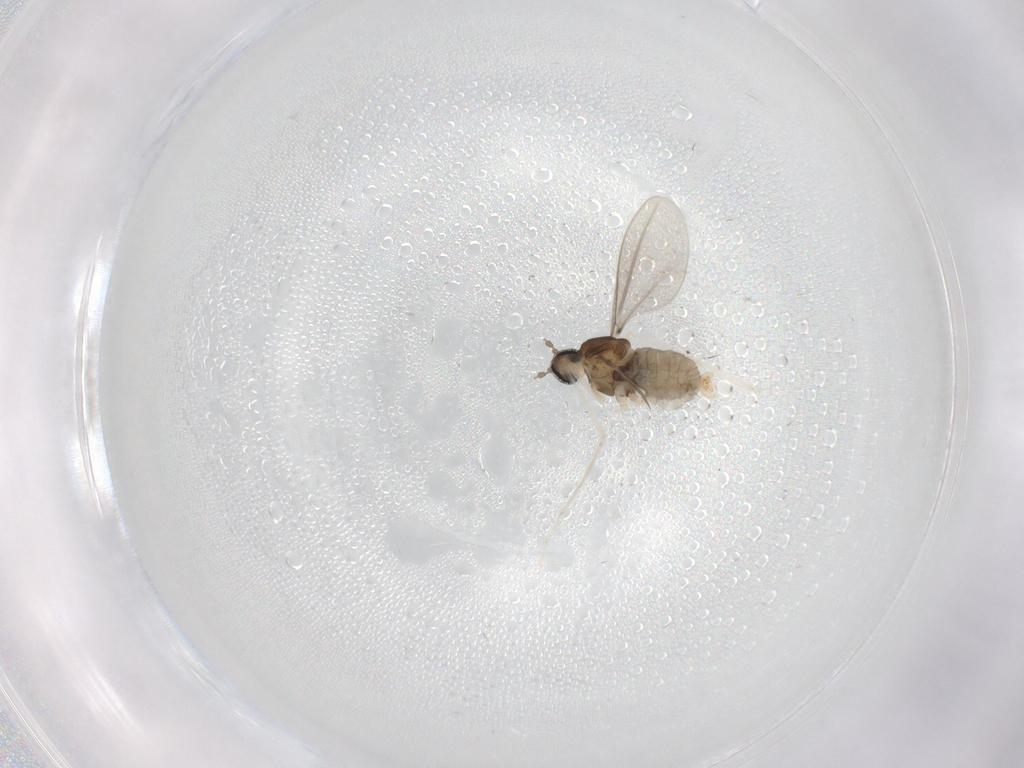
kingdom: Animalia
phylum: Arthropoda
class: Insecta
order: Diptera
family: Cecidomyiidae
